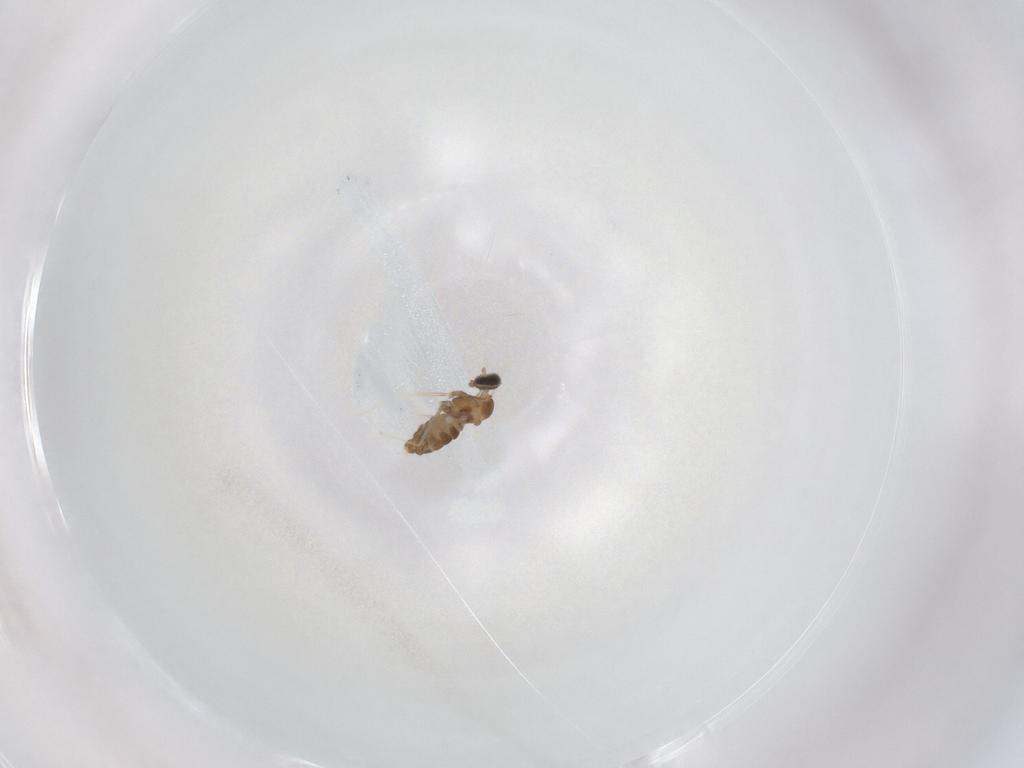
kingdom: Animalia
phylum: Arthropoda
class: Insecta
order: Diptera
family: Cecidomyiidae
